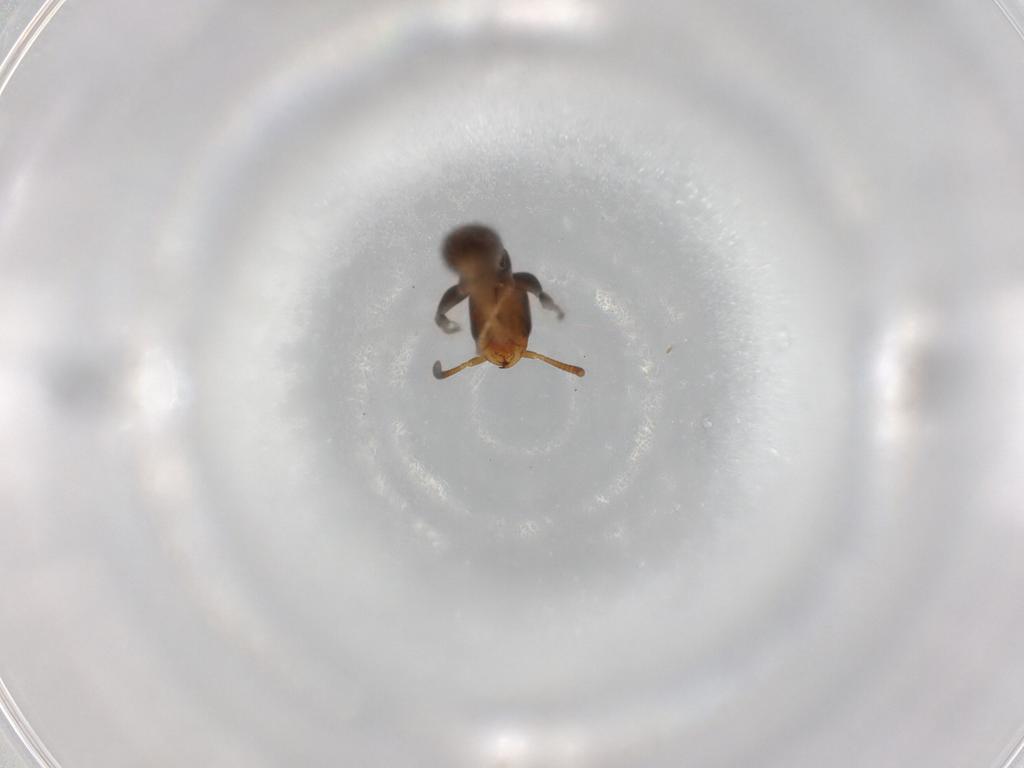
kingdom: Animalia
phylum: Arthropoda
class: Insecta
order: Hymenoptera
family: Formicidae
